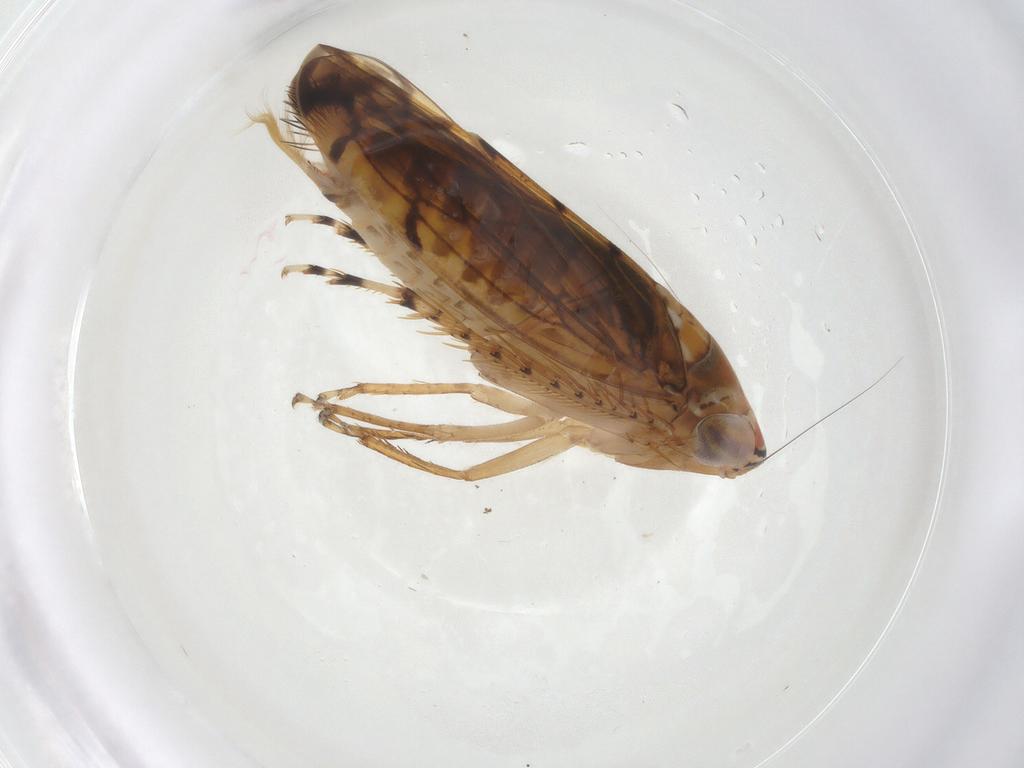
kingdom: Animalia
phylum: Arthropoda
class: Insecta
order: Hemiptera
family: Cicadellidae
